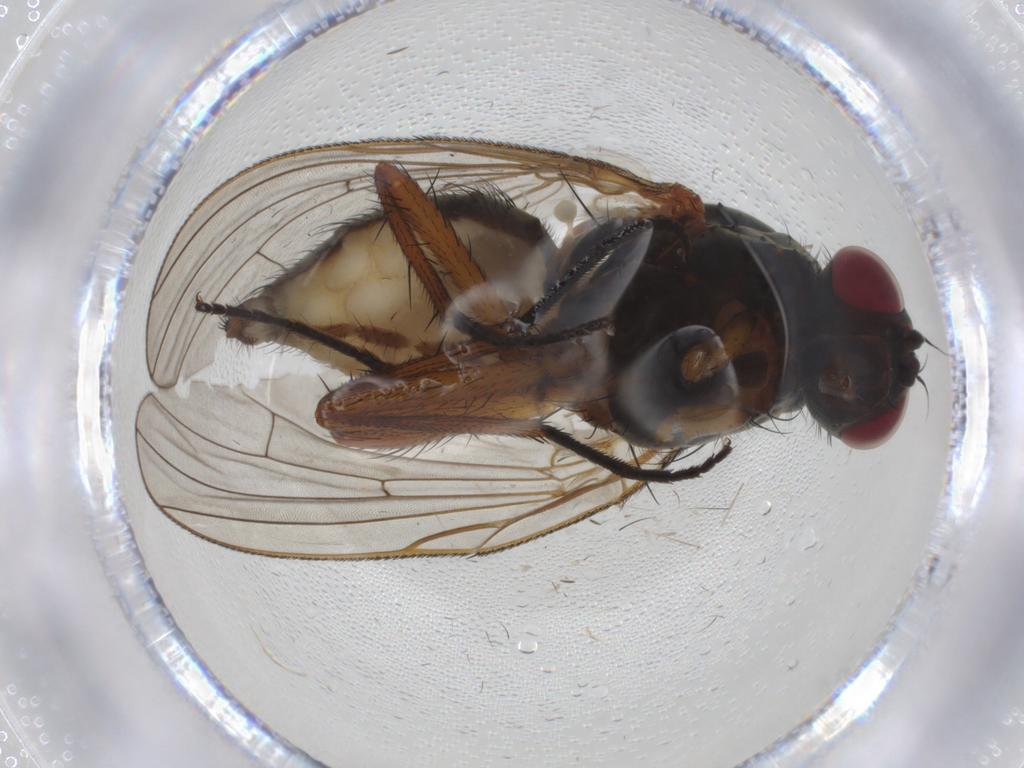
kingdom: Animalia
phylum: Arthropoda
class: Insecta
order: Diptera
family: Anthomyiidae
